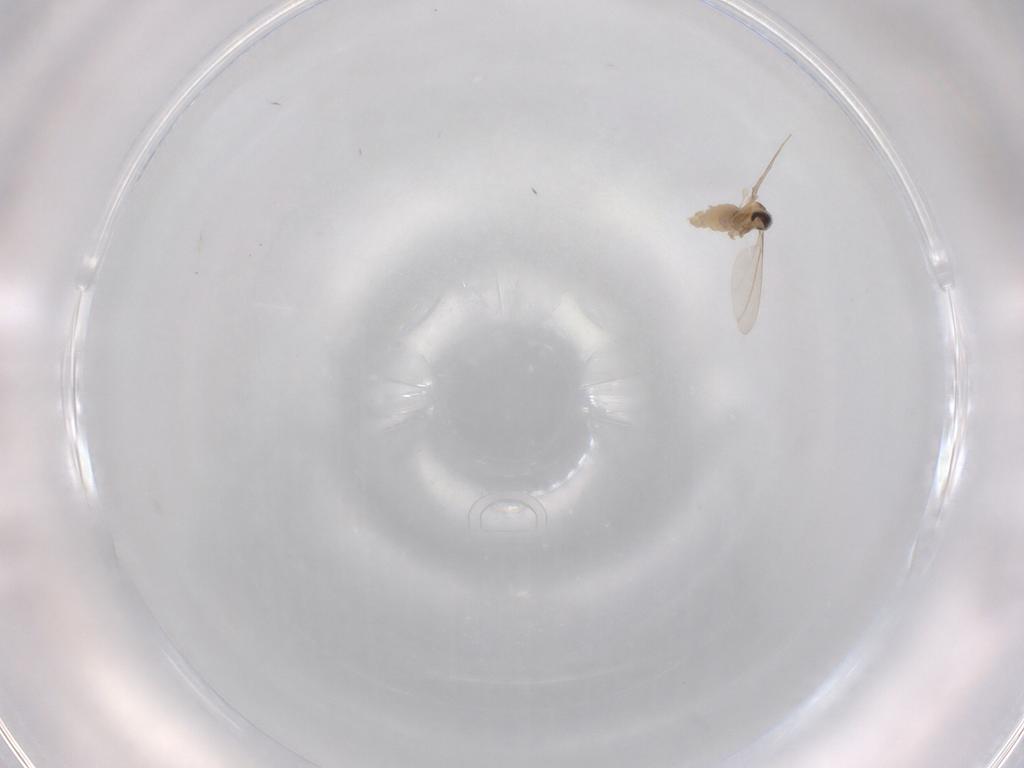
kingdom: Animalia
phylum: Arthropoda
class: Insecta
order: Diptera
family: Cecidomyiidae
